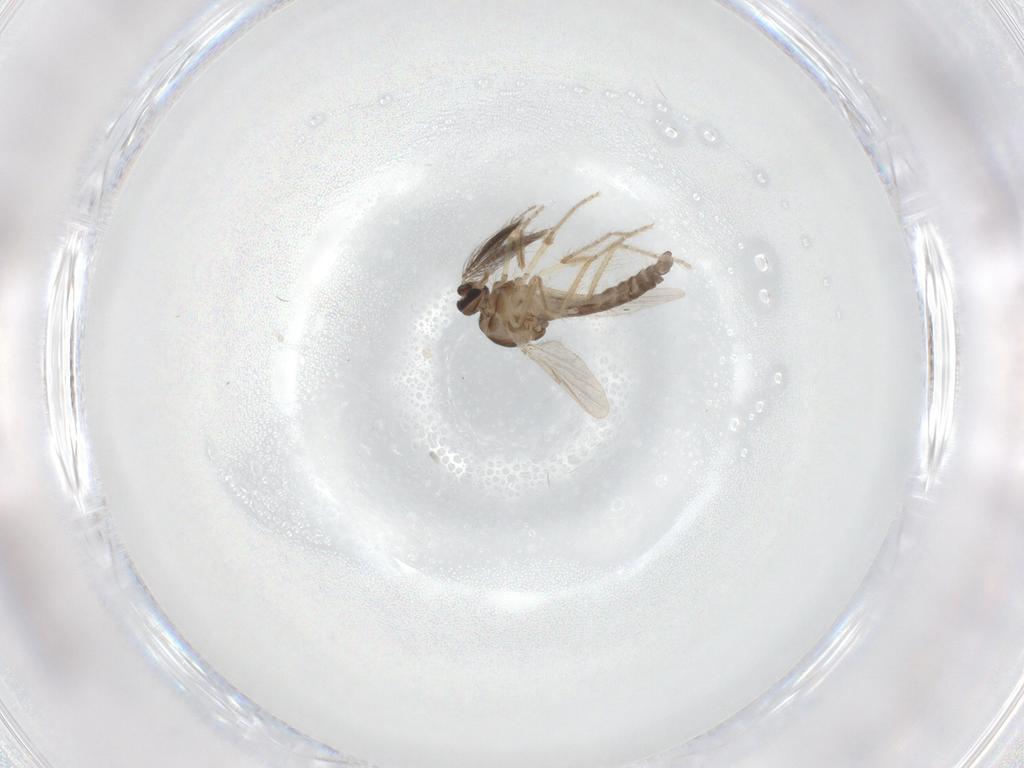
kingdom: Animalia
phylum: Arthropoda
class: Insecta
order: Diptera
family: Ceratopogonidae
